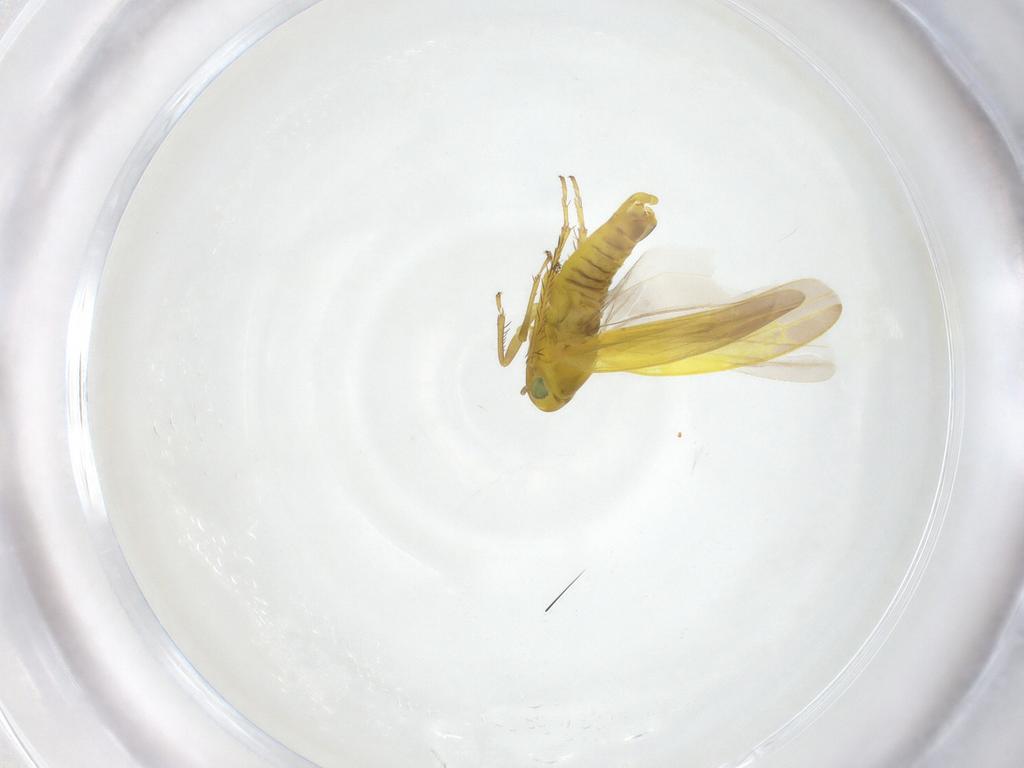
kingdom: Animalia
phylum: Arthropoda
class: Insecta
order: Hemiptera
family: Cicadellidae
